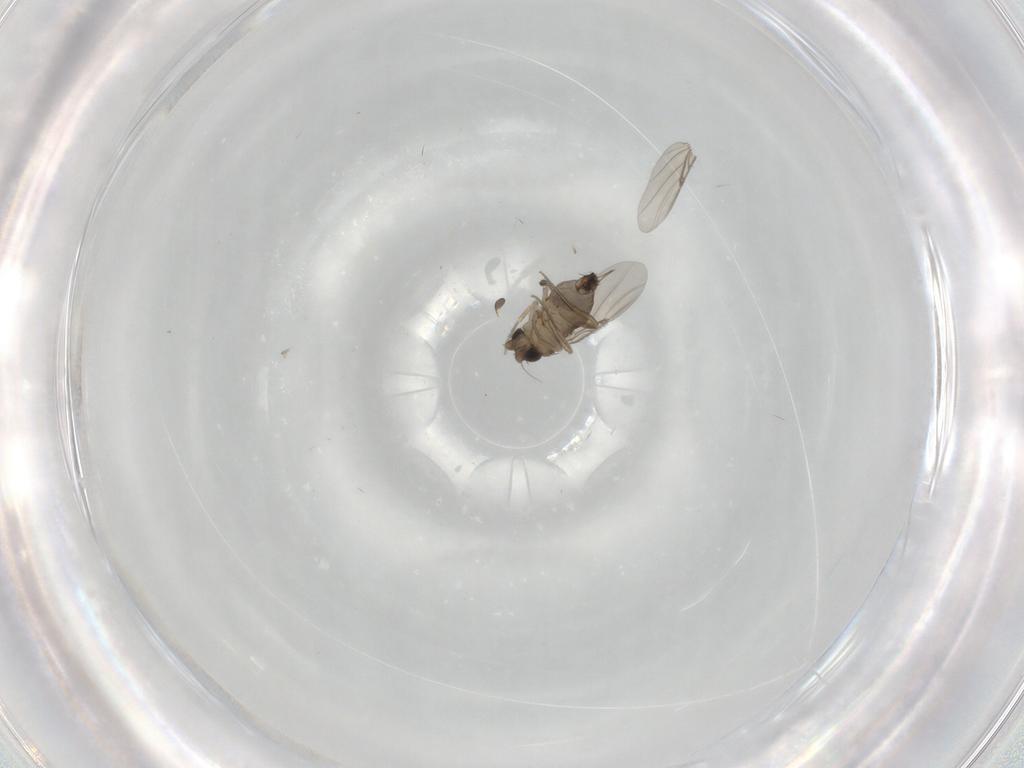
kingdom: Animalia
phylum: Arthropoda
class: Insecta
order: Diptera
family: Phoridae
